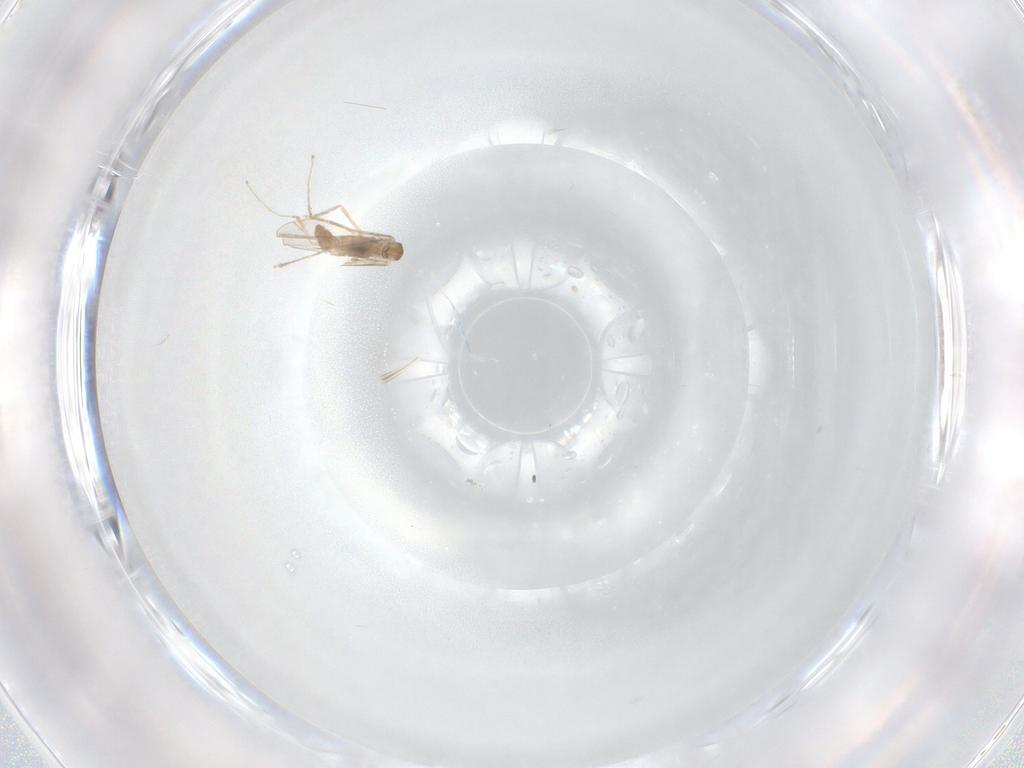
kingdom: Animalia
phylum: Arthropoda
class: Insecta
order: Diptera
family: Cecidomyiidae
